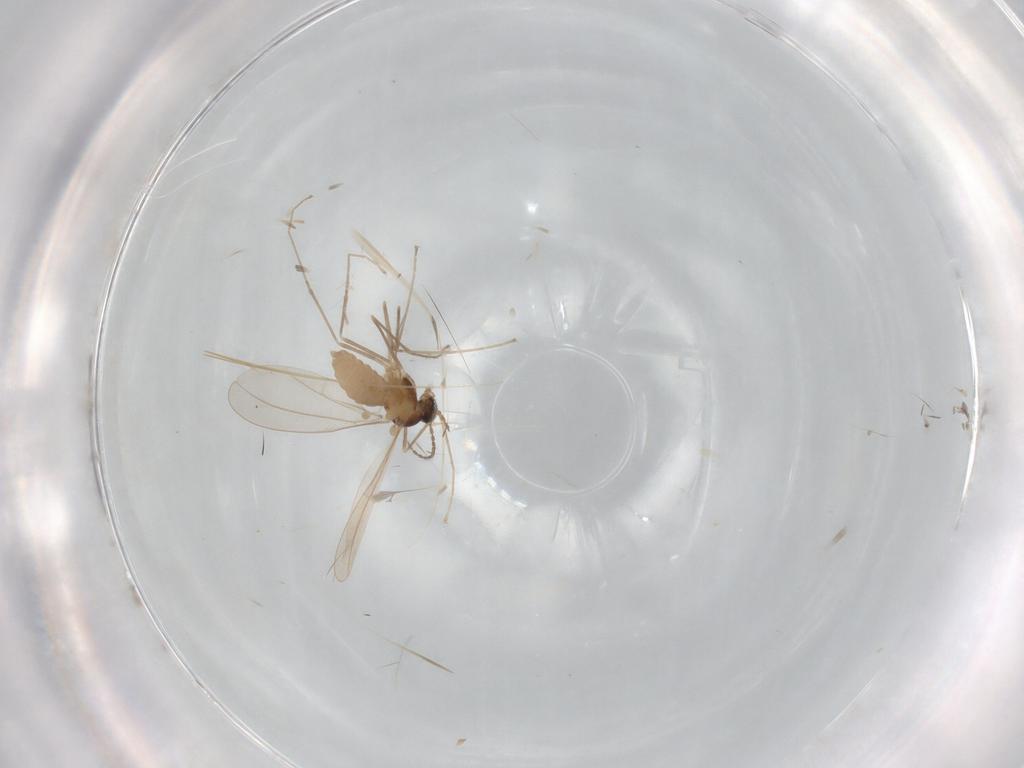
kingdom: Animalia
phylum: Arthropoda
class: Insecta
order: Diptera
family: Cecidomyiidae
